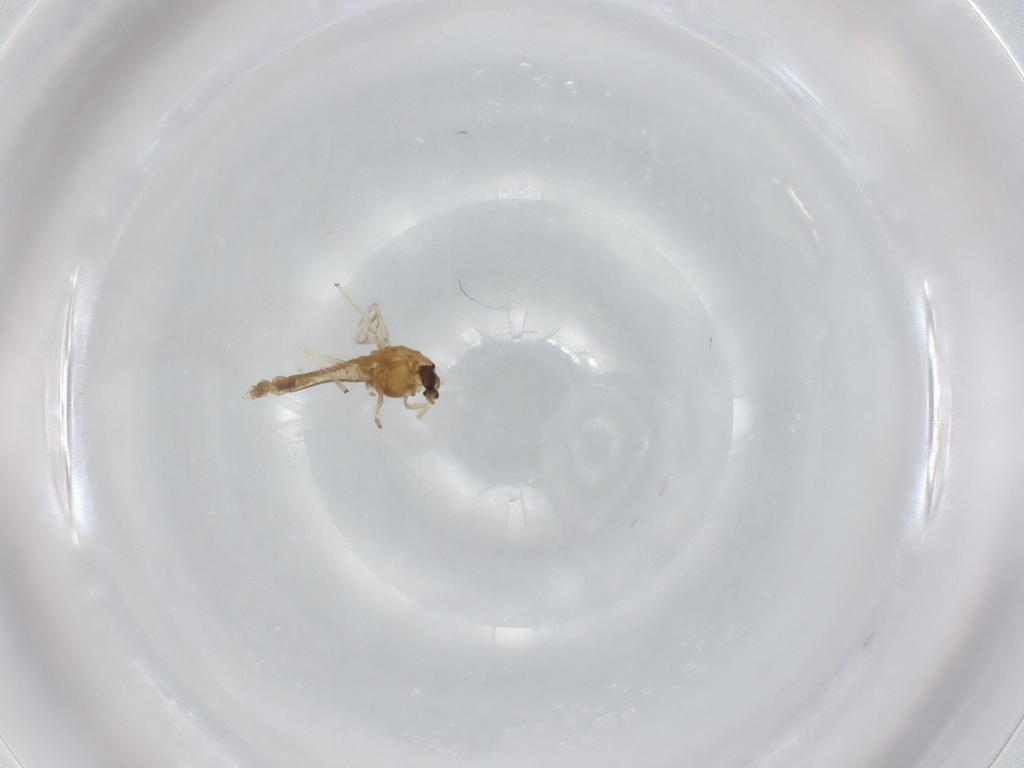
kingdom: Animalia
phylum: Arthropoda
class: Insecta
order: Diptera
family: Chironomidae
